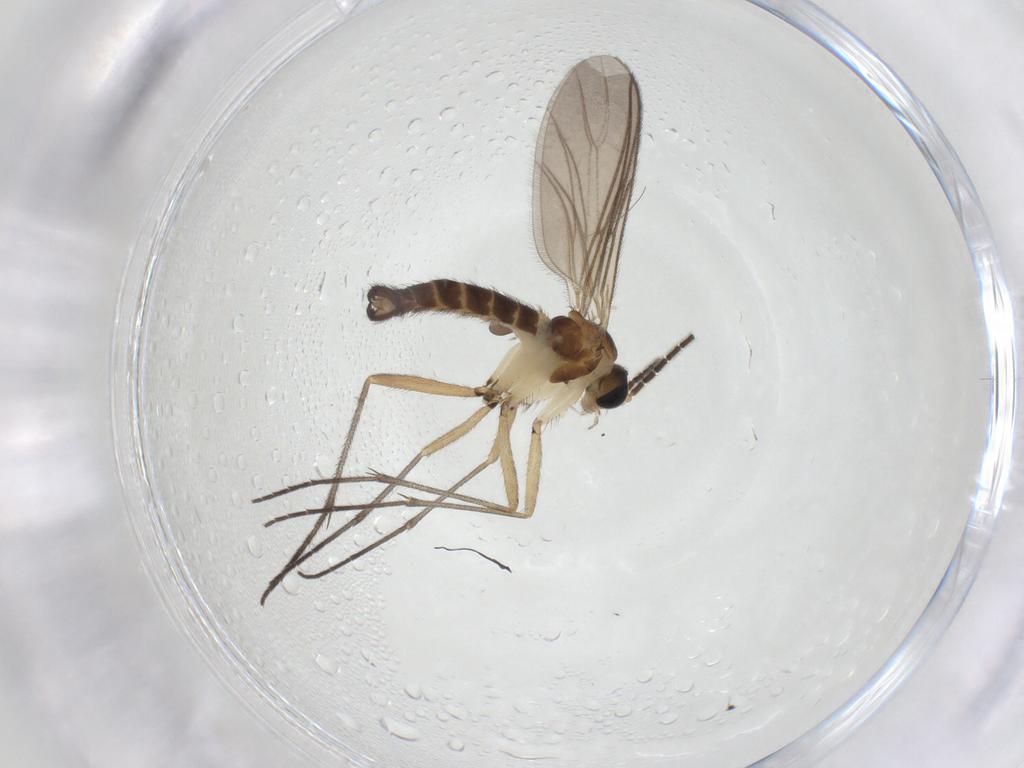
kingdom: Animalia
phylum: Arthropoda
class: Insecta
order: Diptera
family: Sciaridae
